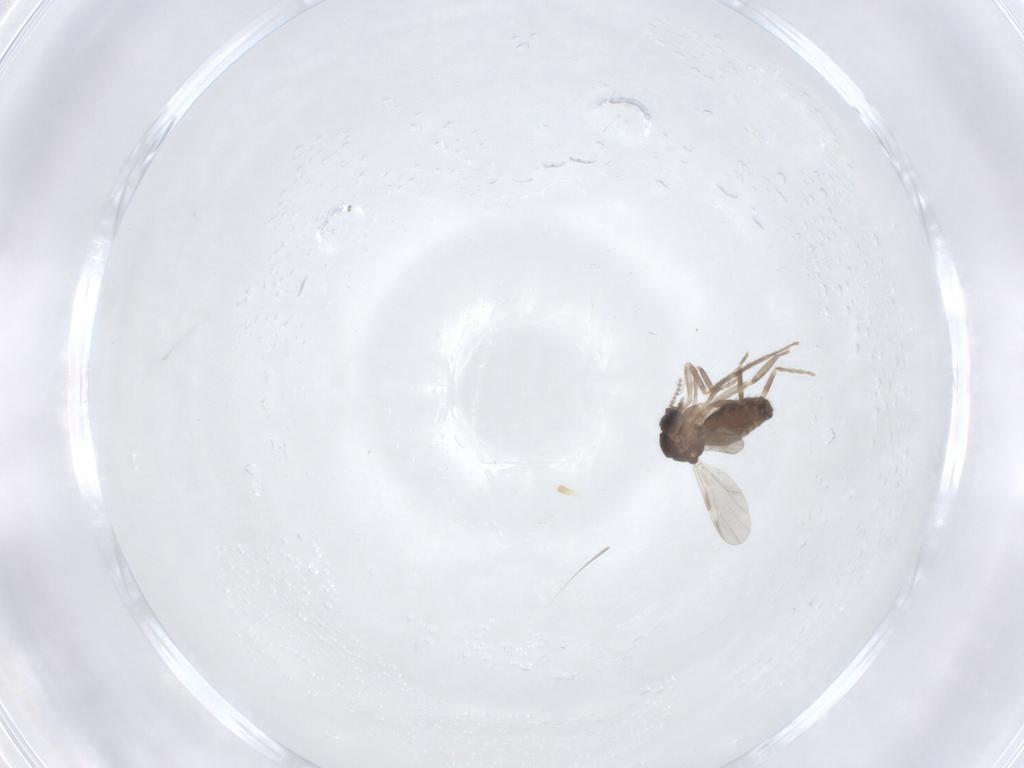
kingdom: Animalia
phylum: Arthropoda
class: Insecta
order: Diptera
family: Ceratopogonidae
